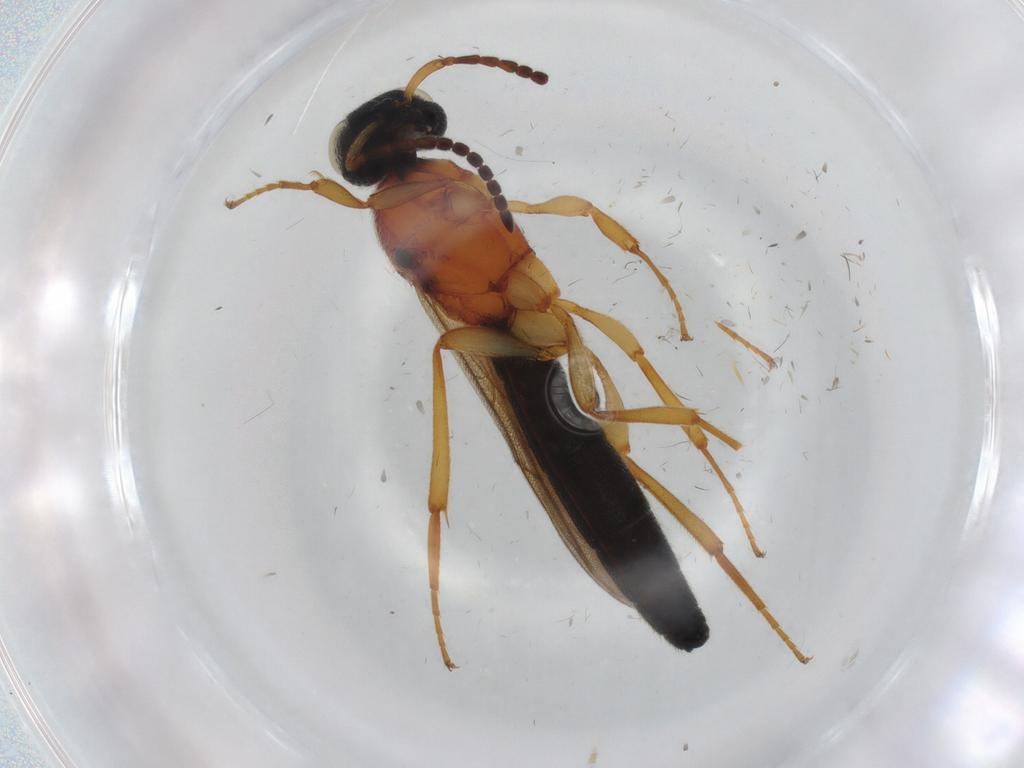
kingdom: Animalia
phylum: Arthropoda
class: Insecta
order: Hymenoptera
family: Scelionidae
